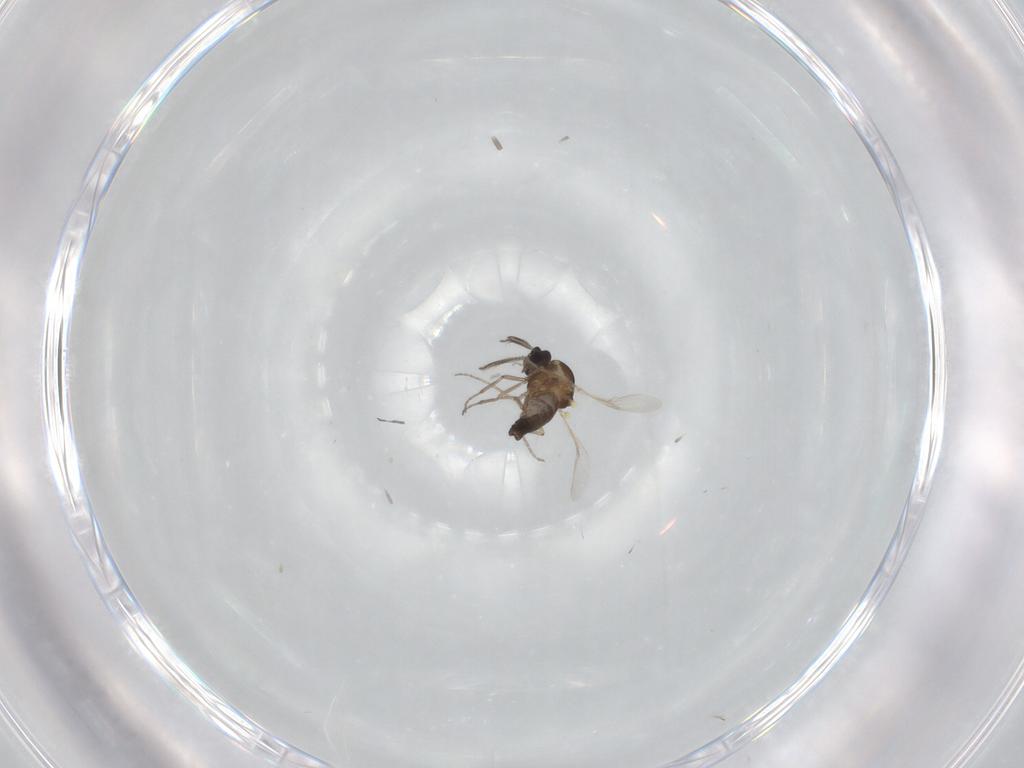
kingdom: Animalia
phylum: Arthropoda
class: Insecta
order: Diptera
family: Ceratopogonidae
